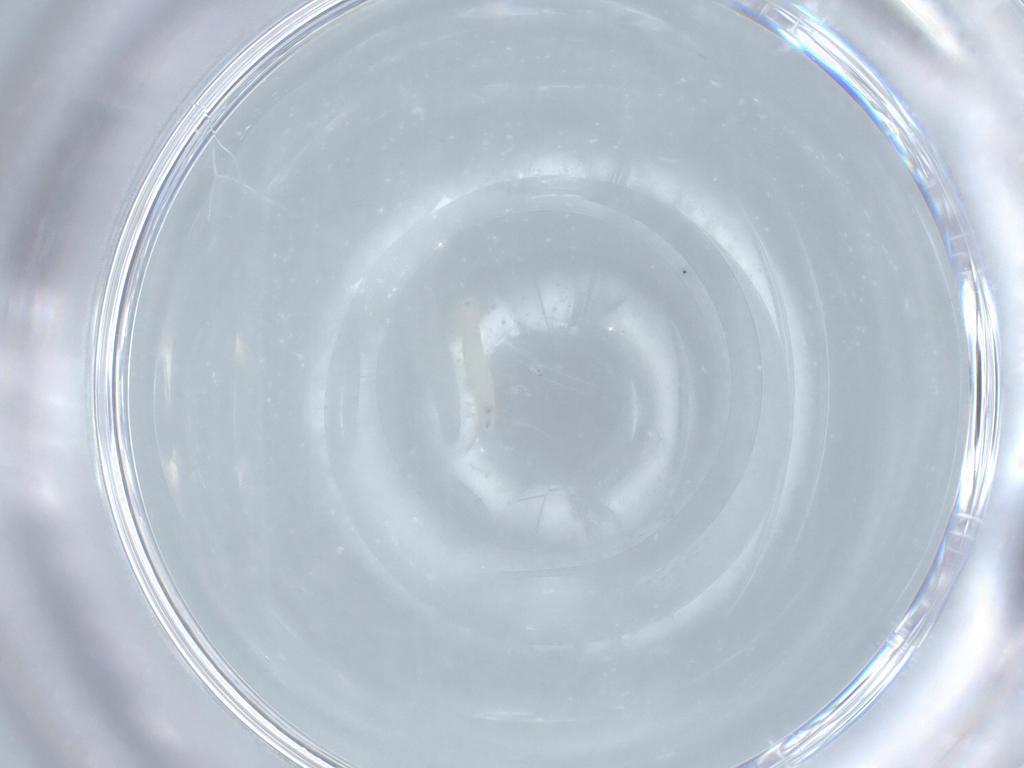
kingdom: Animalia
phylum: Arthropoda
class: Insecta
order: Diptera
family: Sarcophagidae
